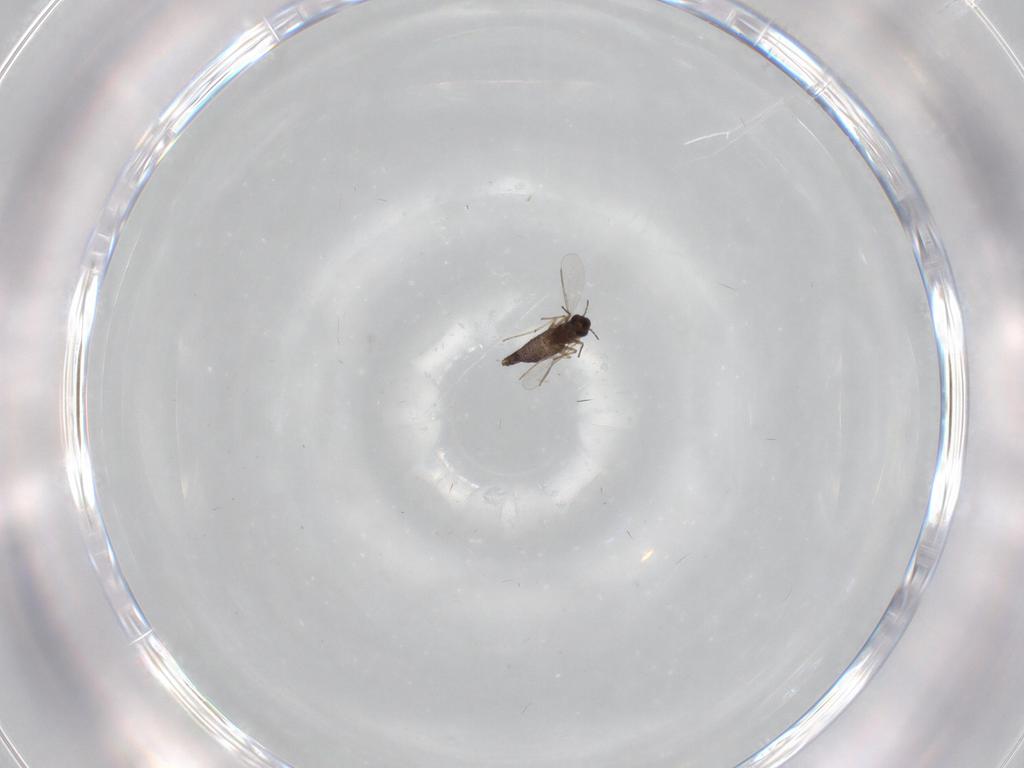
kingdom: Animalia
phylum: Arthropoda
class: Insecta
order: Diptera
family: Chironomidae
